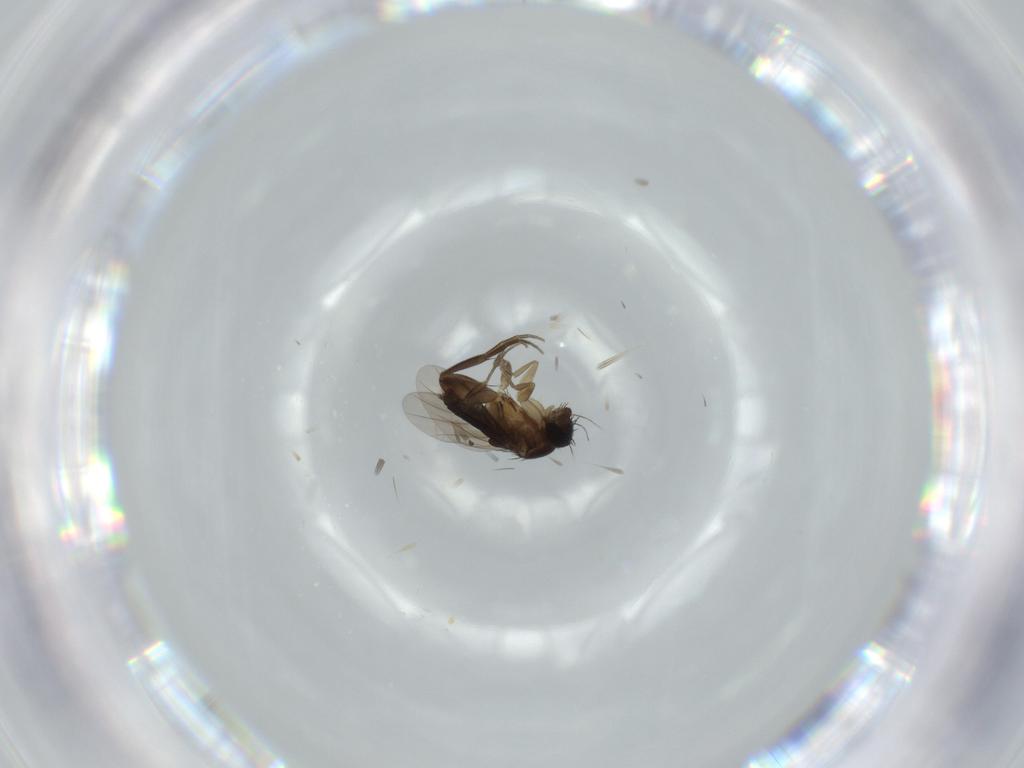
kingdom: Animalia
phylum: Arthropoda
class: Insecta
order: Diptera
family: Phoridae
